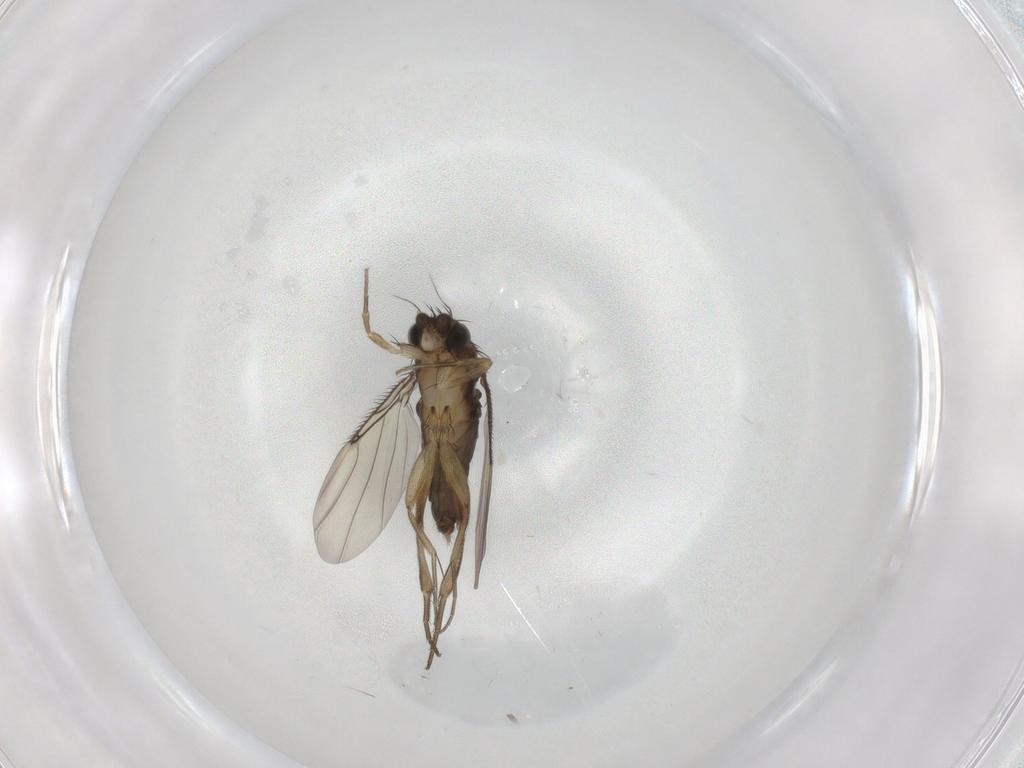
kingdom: Animalia
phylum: Arthropoda
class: Insecta
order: Diptera
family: Phoridae
